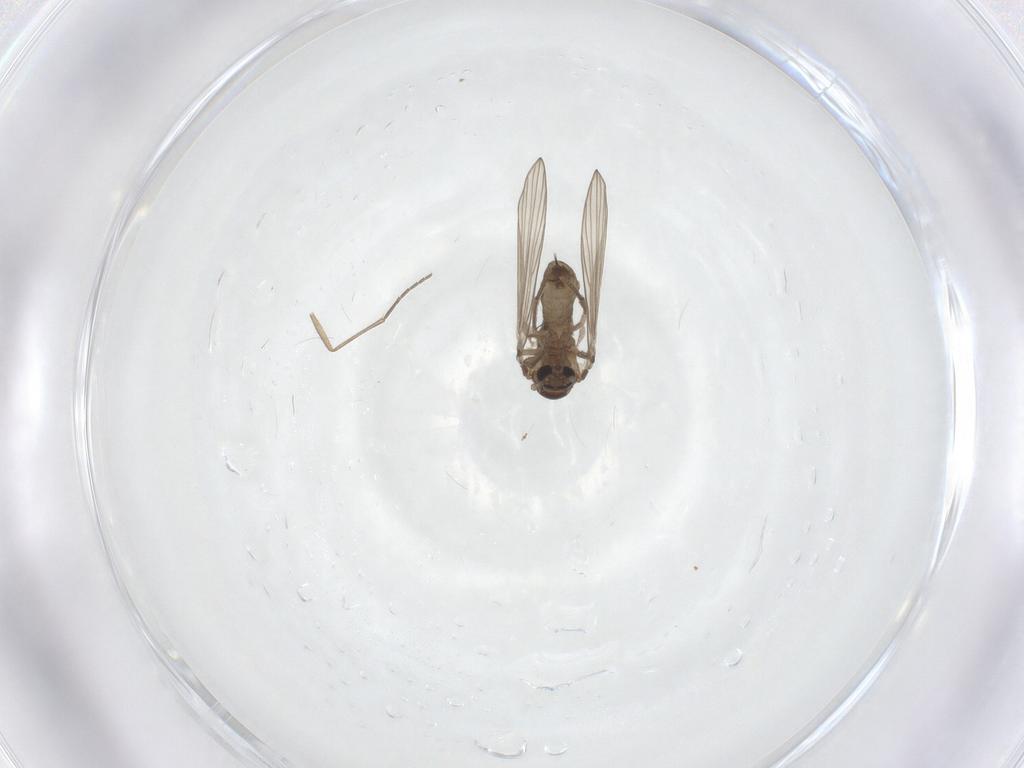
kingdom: Animalia
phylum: Arthropoda
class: Insecta
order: Diptera
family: Psychodidae
